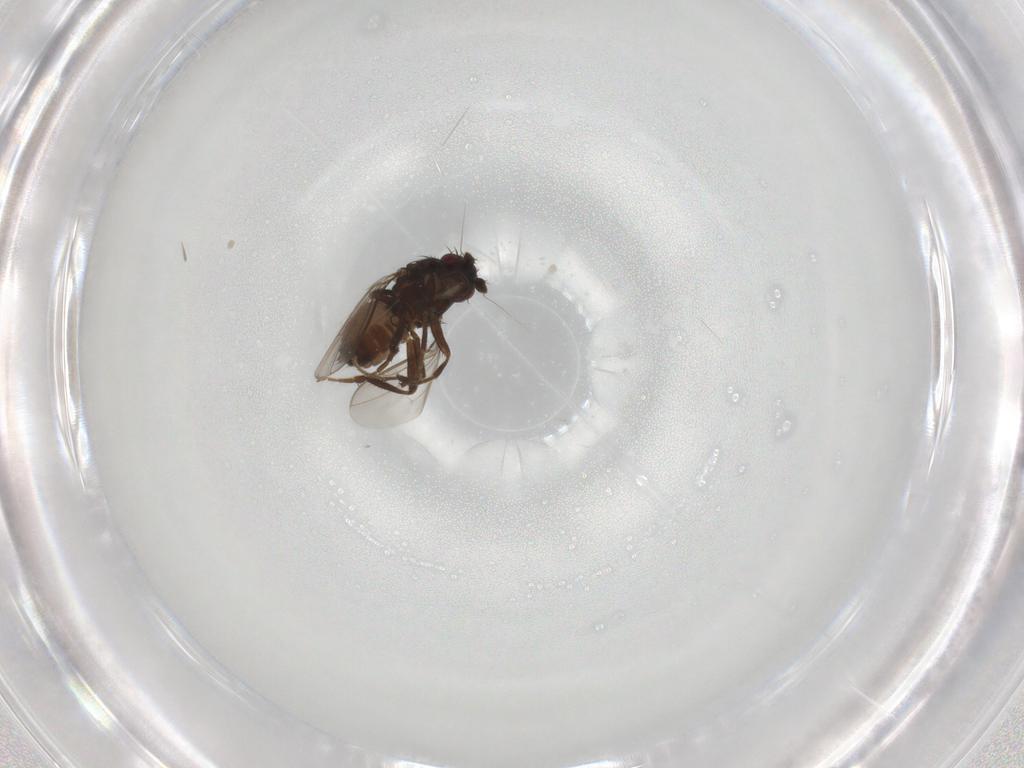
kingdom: Animalia
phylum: Arthropoda
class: Insecta
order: Diptera
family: Sphaeroceridae
